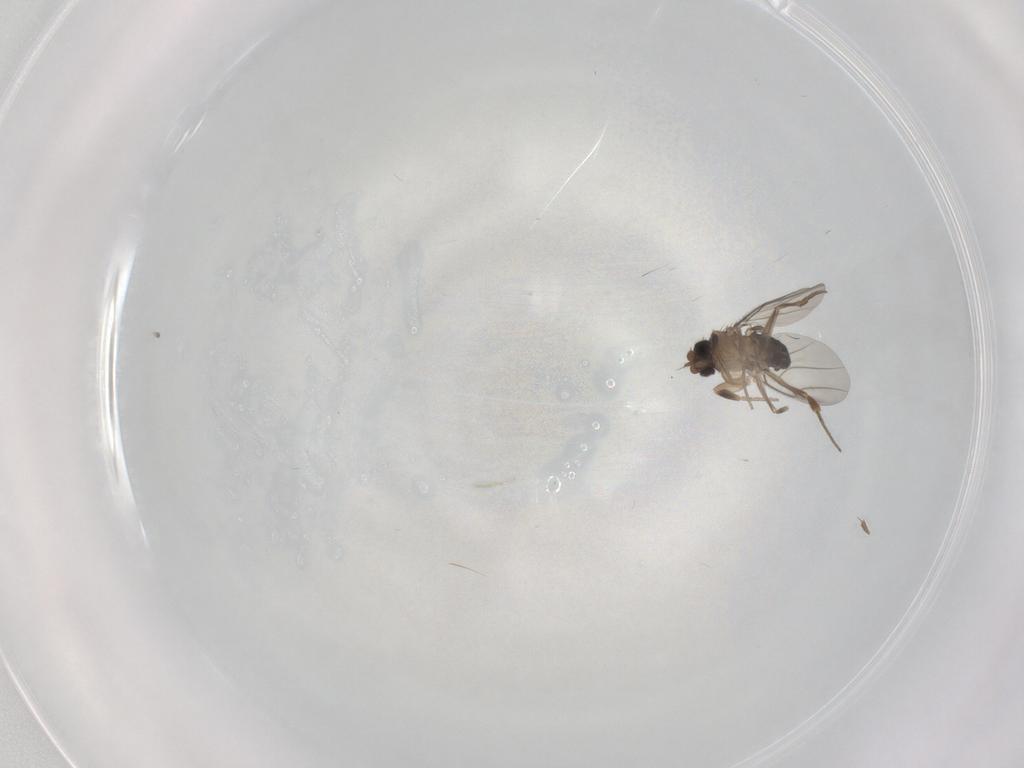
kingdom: Animalia
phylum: Arthropoda
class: Insecta
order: Diptera
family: Phoridae
